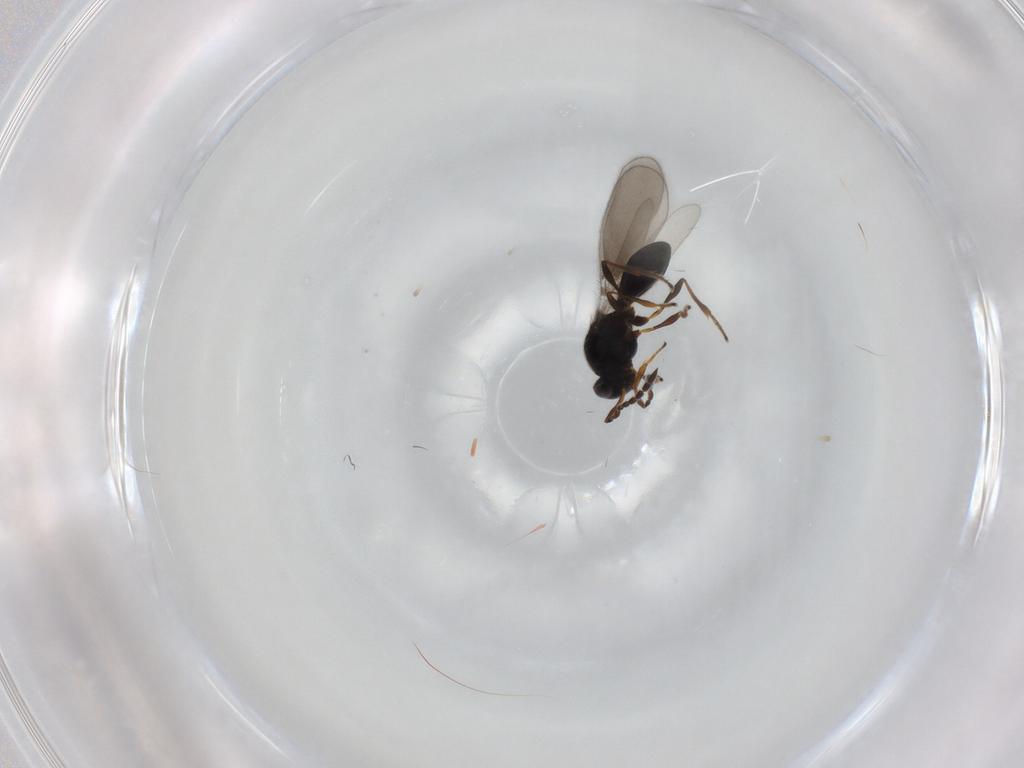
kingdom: Animalia
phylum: Arthropoda
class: Insecta
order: Hymenoptera
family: Platygastridae
